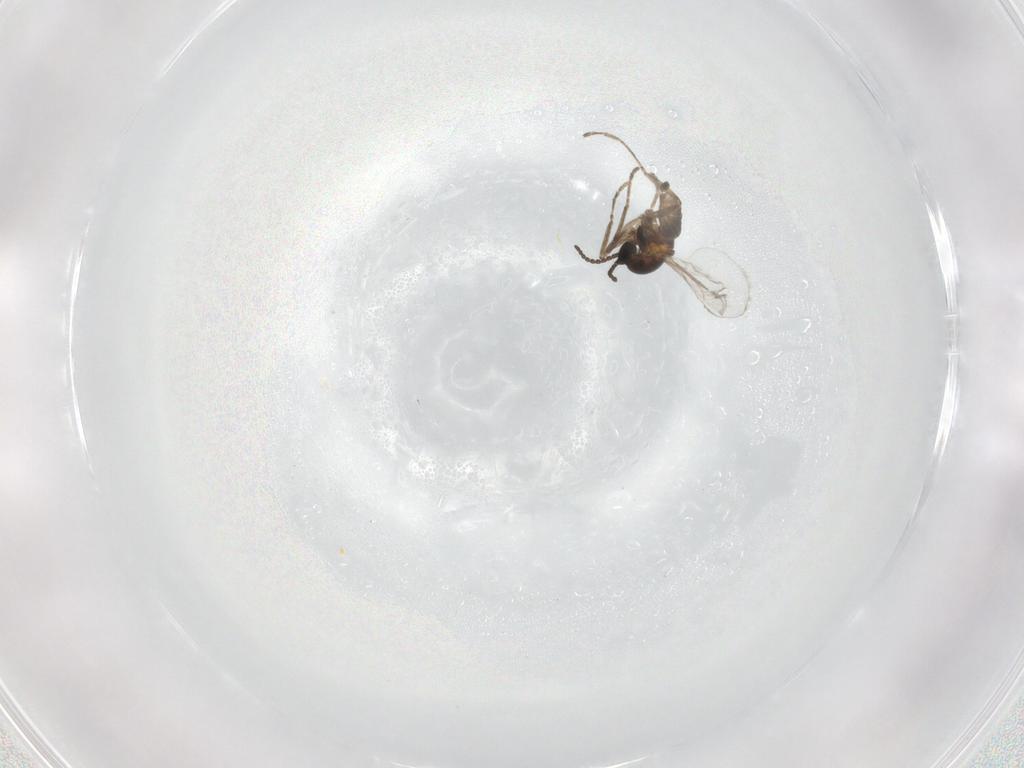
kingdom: Animalia
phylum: Arthropoda
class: Insecta
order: Diptera
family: Cecidomyiidae
